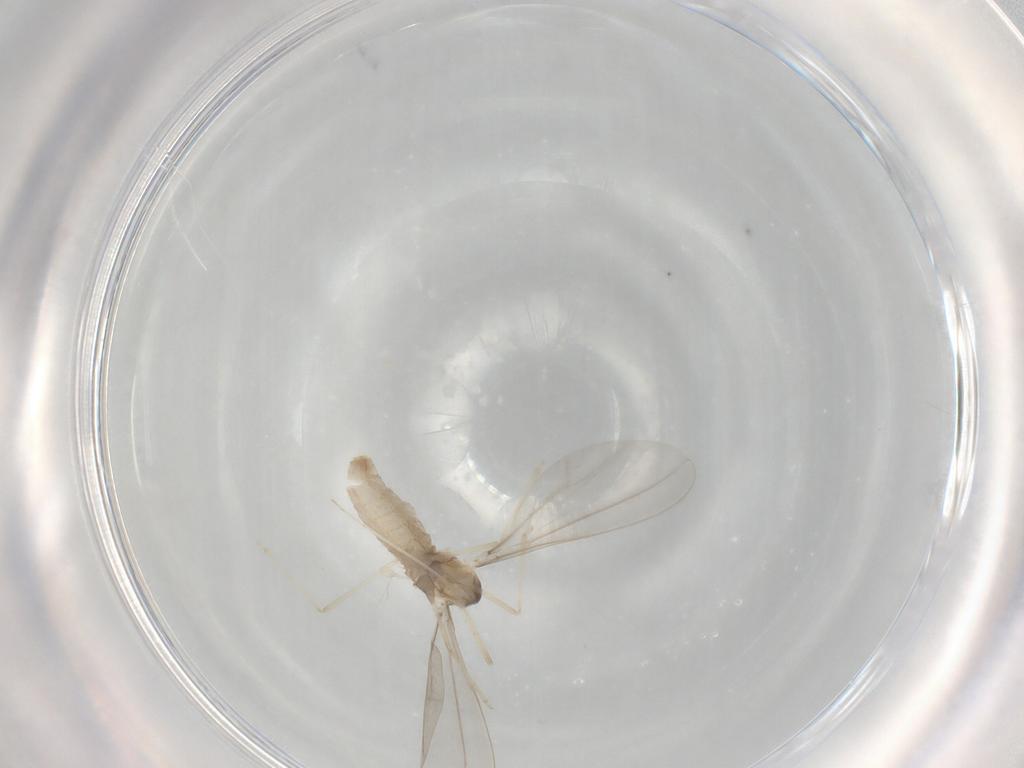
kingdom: Animalia
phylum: Arthropoda
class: Insecta
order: Diptera
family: Cecidomyiidae
